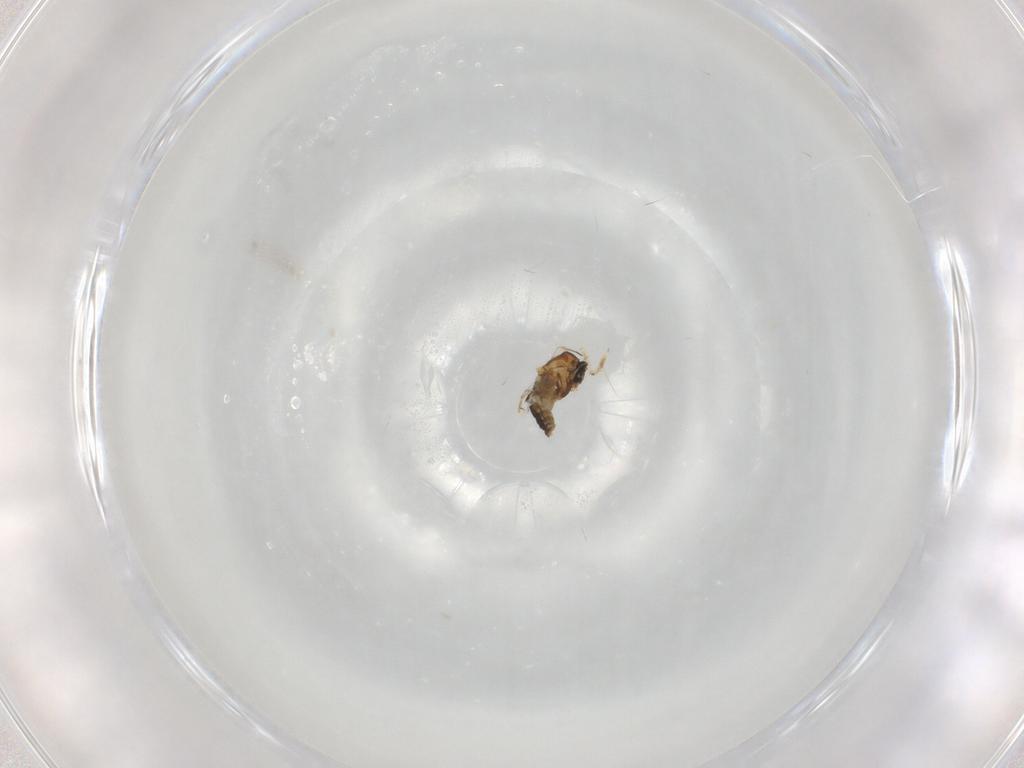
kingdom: Animalia
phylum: Arthropoda
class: Insecta
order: Diptera
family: Ceratopogonidae
